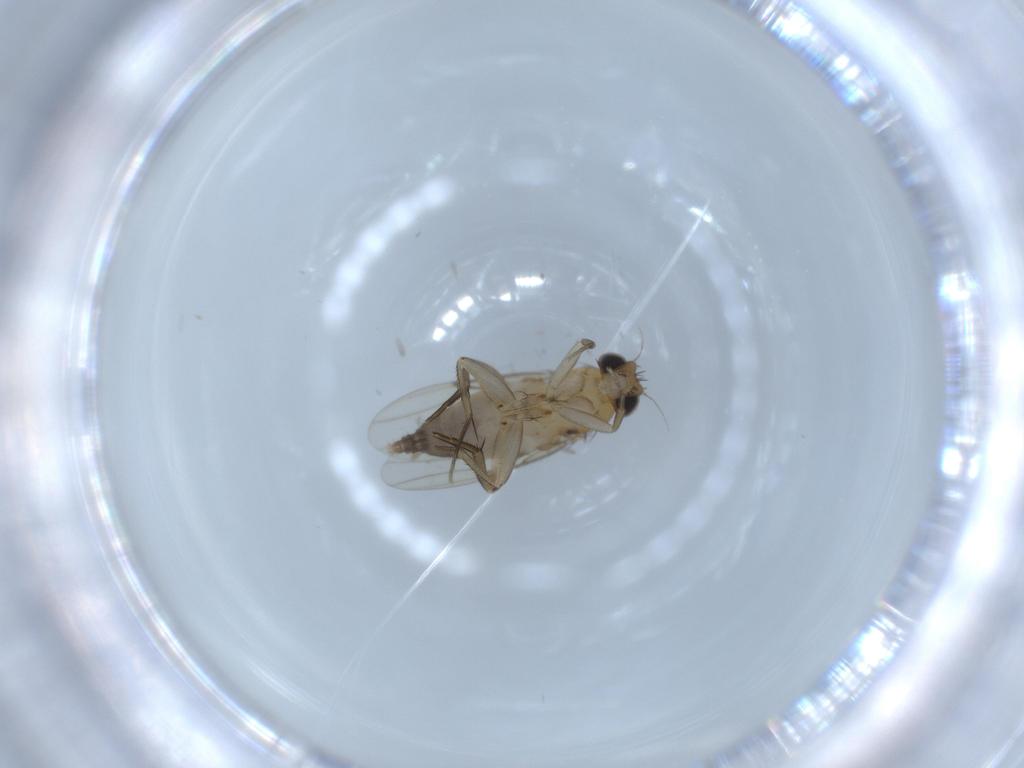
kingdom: Animalia
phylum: Arthropoda
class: Insecta
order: Diptera
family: Phoridae
